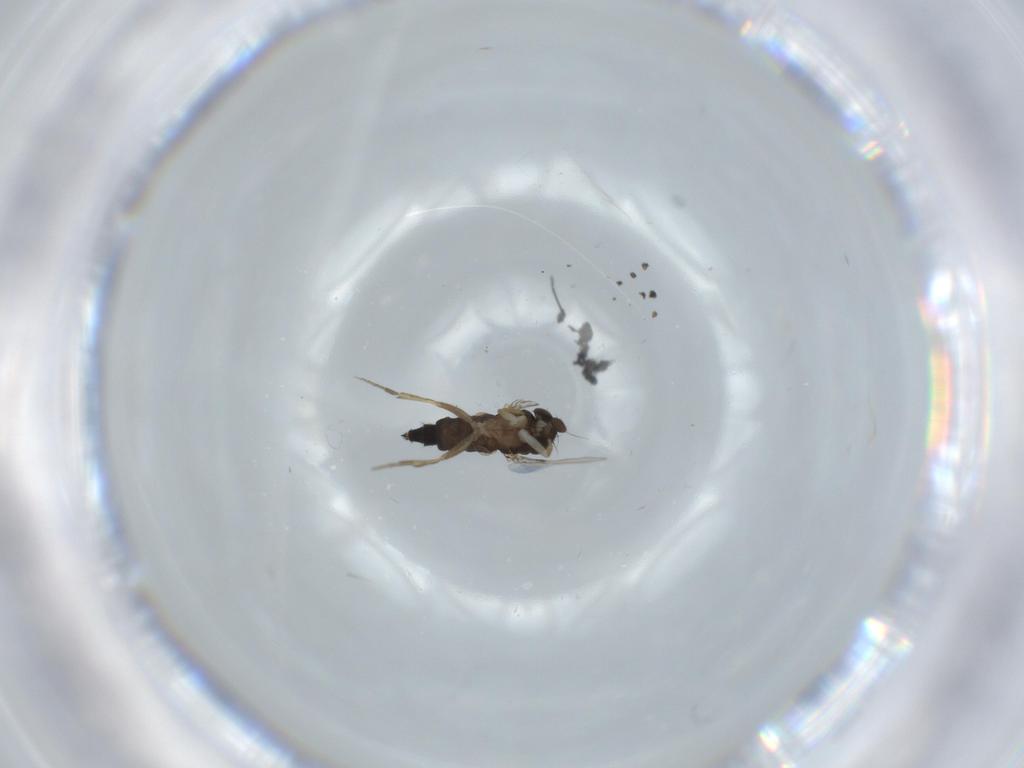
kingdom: Animalia
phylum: Arthropoda
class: Insecta
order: Diptera
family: Phoridae
